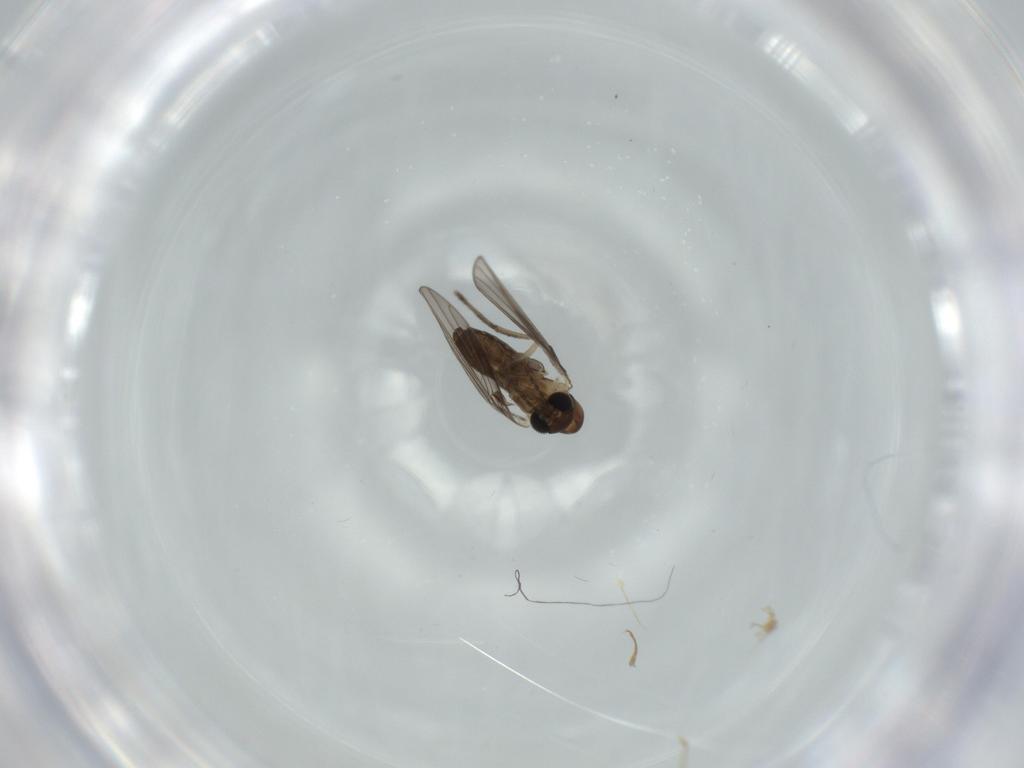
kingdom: Animalia
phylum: Arthropoda
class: Insecta
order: Diptera
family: Psychodidae
